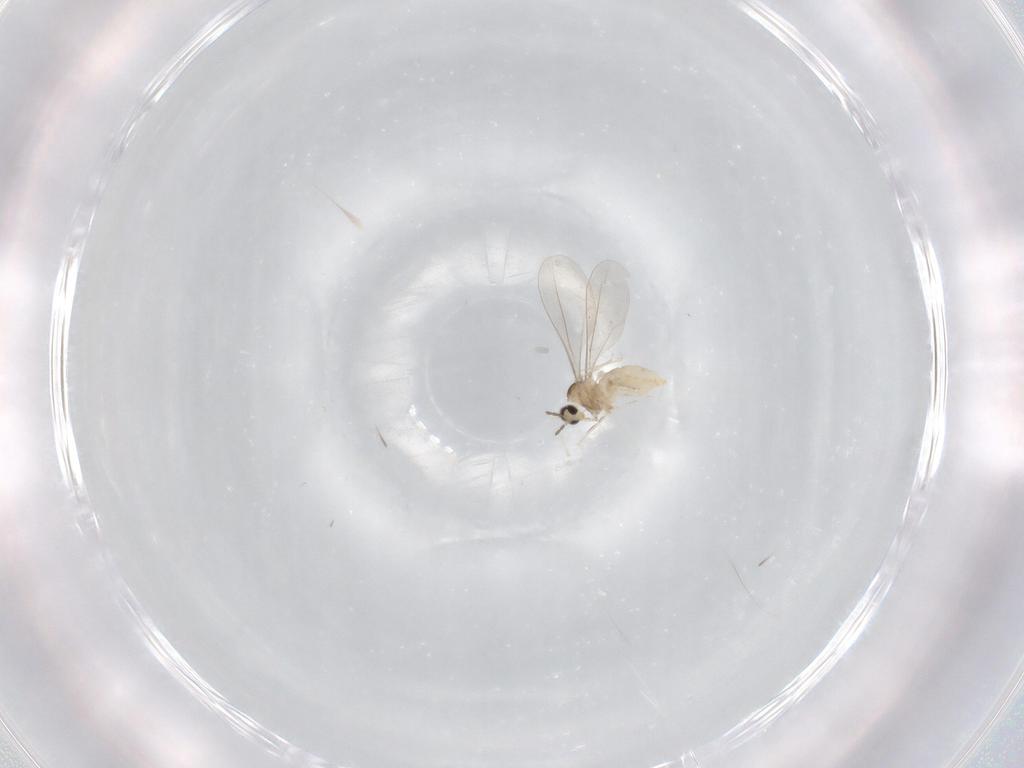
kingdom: Animalia
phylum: Arthropoda
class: Insecta
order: Diptera
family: Cecidomyiidae
